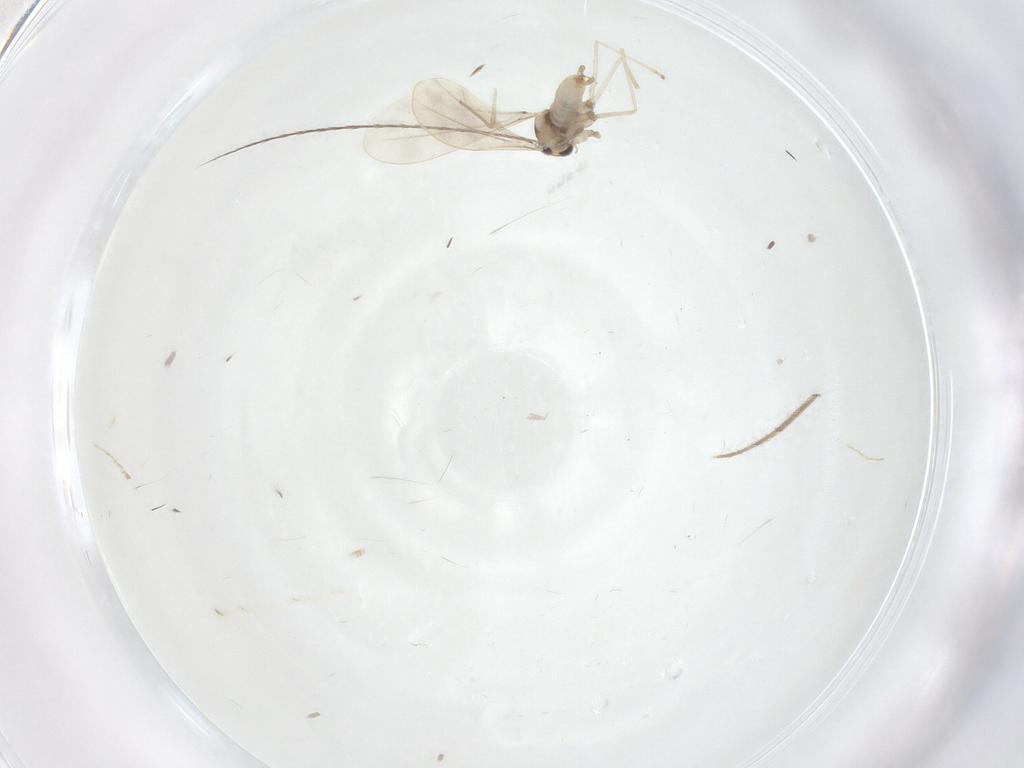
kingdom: Animalia
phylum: Arthropoda
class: Insecta
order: Diptera
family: Cecidomyiidae
